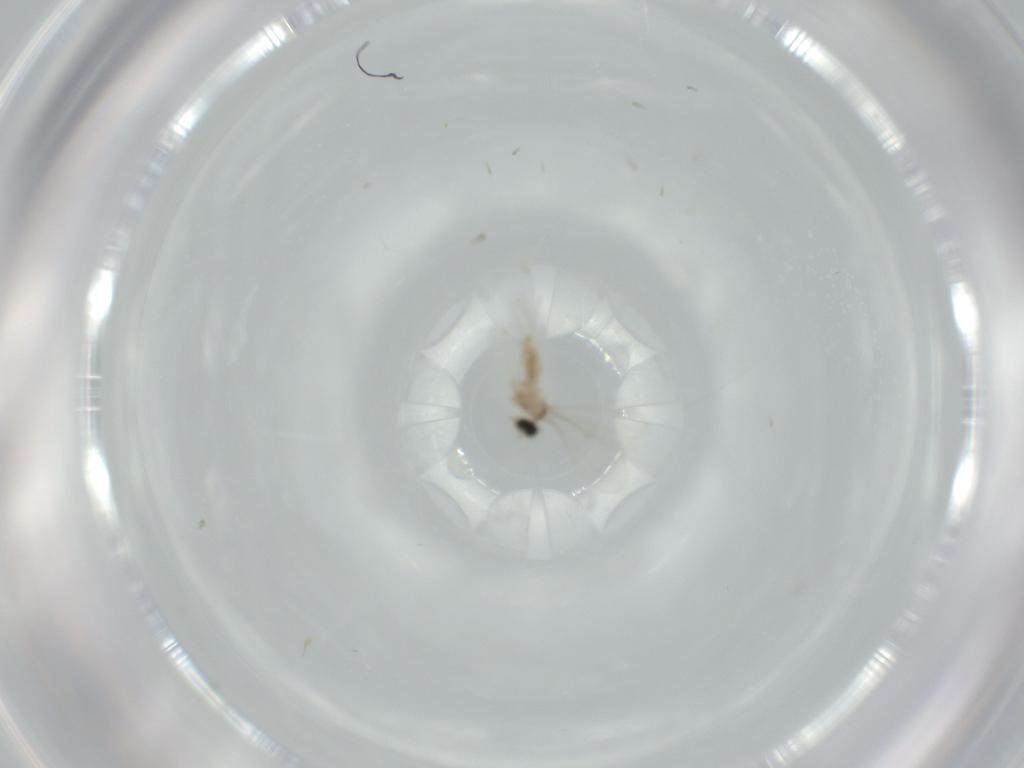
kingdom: Animalia
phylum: Arthropoda
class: Insecta
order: Diptera
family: Cecidomyiidae
